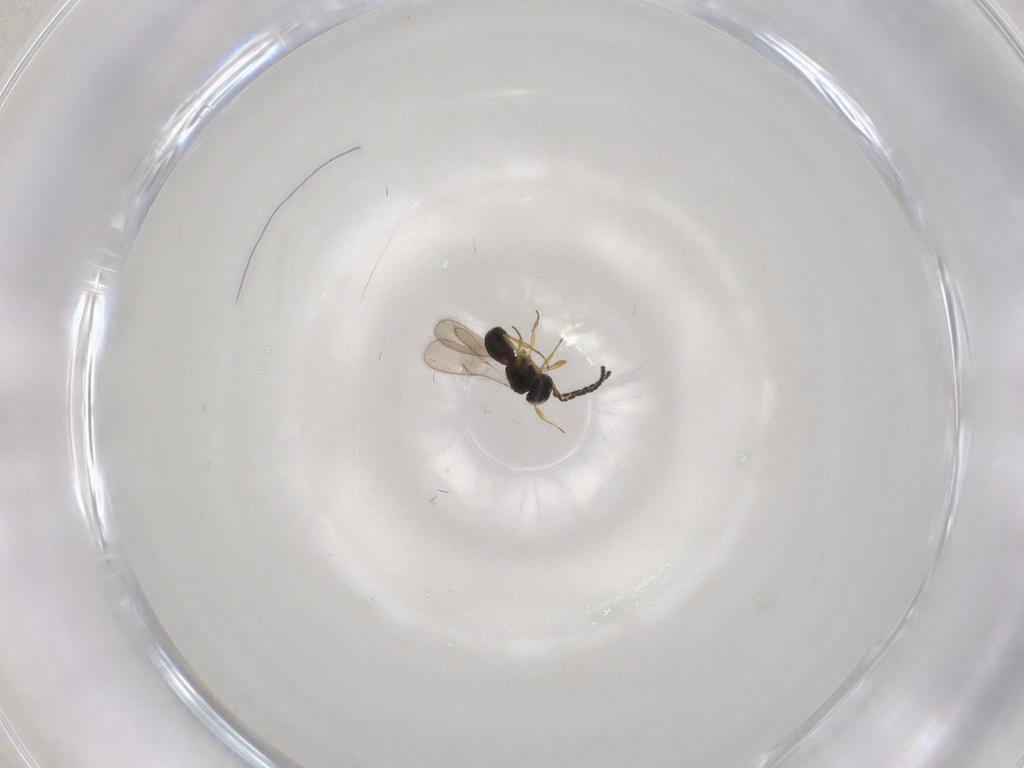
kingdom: Animalia
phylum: Arthropoda
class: Insecta
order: Hymenoptera
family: Scelionidae
